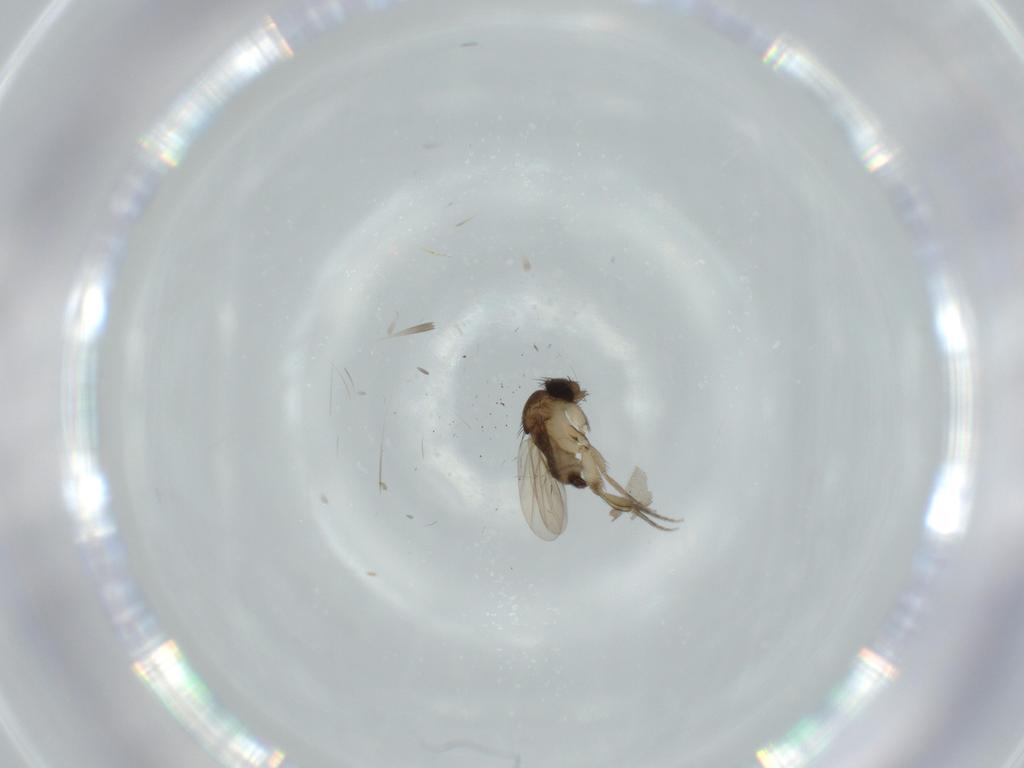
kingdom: Animalia
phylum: Arthropoda
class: Insecta
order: Diptera
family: Phoridae
